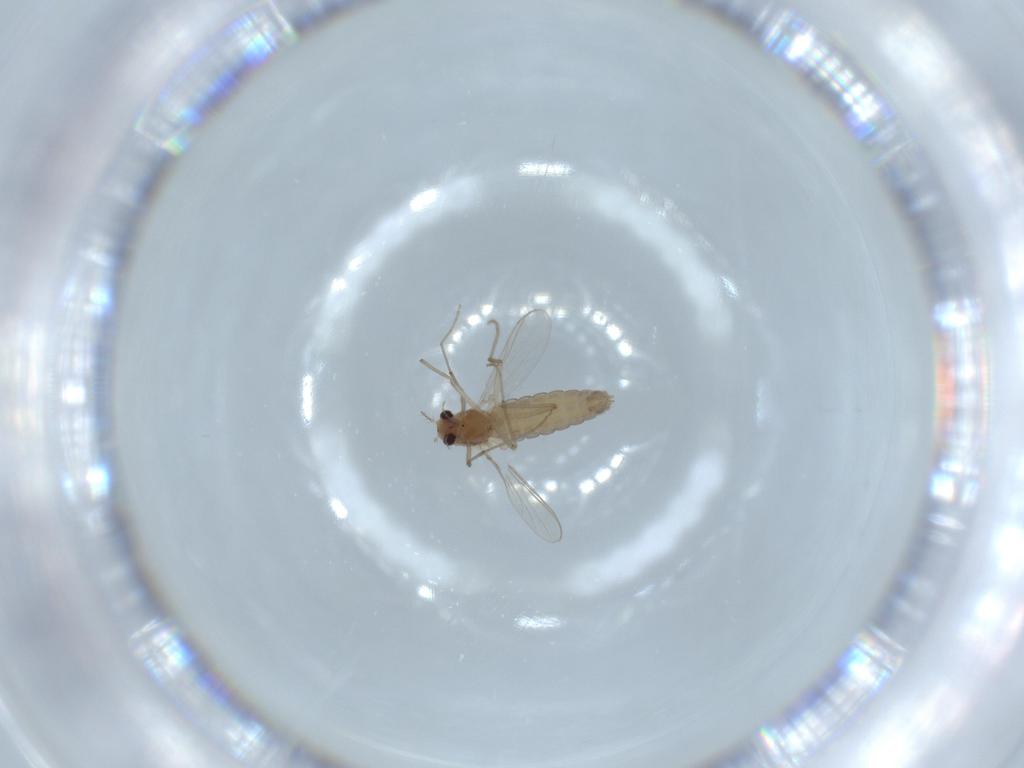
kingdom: Animalia
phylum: Arthropoda
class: Insecta
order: Diptera
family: Chironomidae
